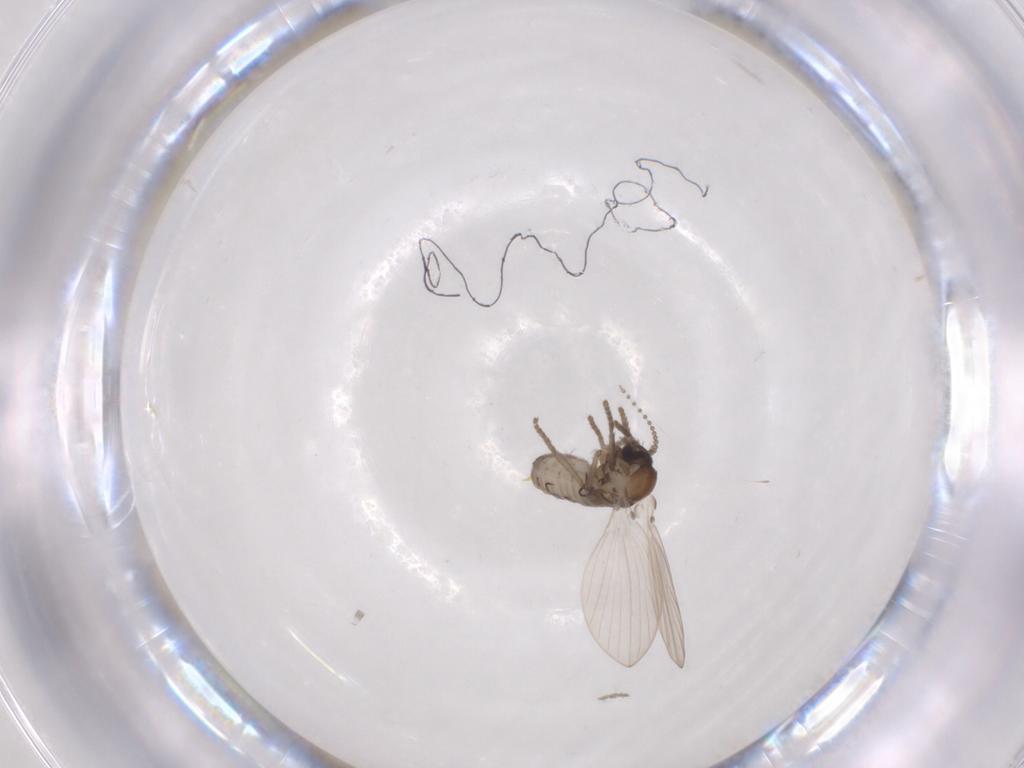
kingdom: Animalia
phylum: Arthropoda
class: Insecta
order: Diptera
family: Psychodidae
